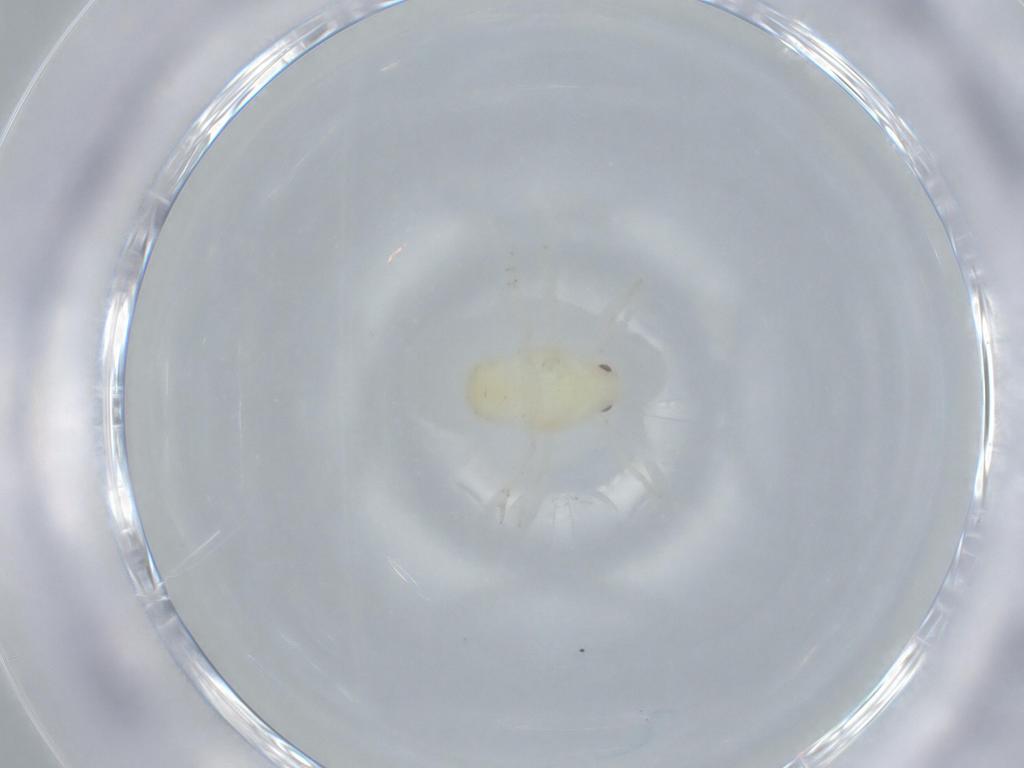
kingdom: Animalia
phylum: Arthropoda
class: Insecta
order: Hemiptera
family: Flatidae
